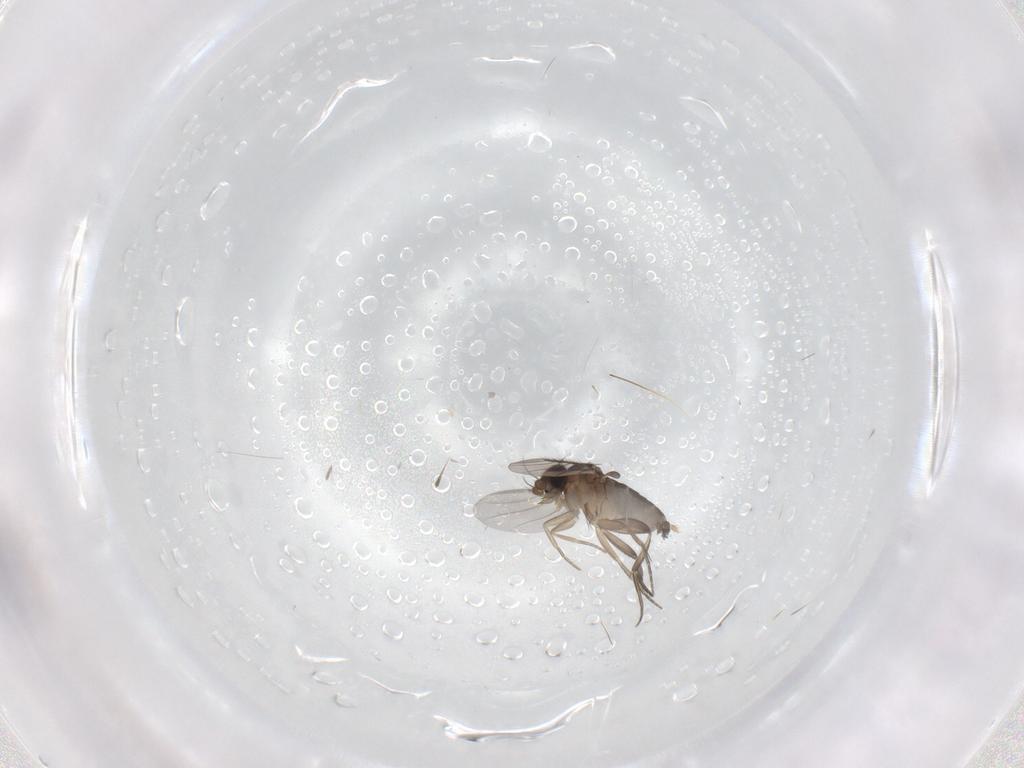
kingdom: Animalia
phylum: Arthropoda
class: Insecta
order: Diptera
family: Phoridae
